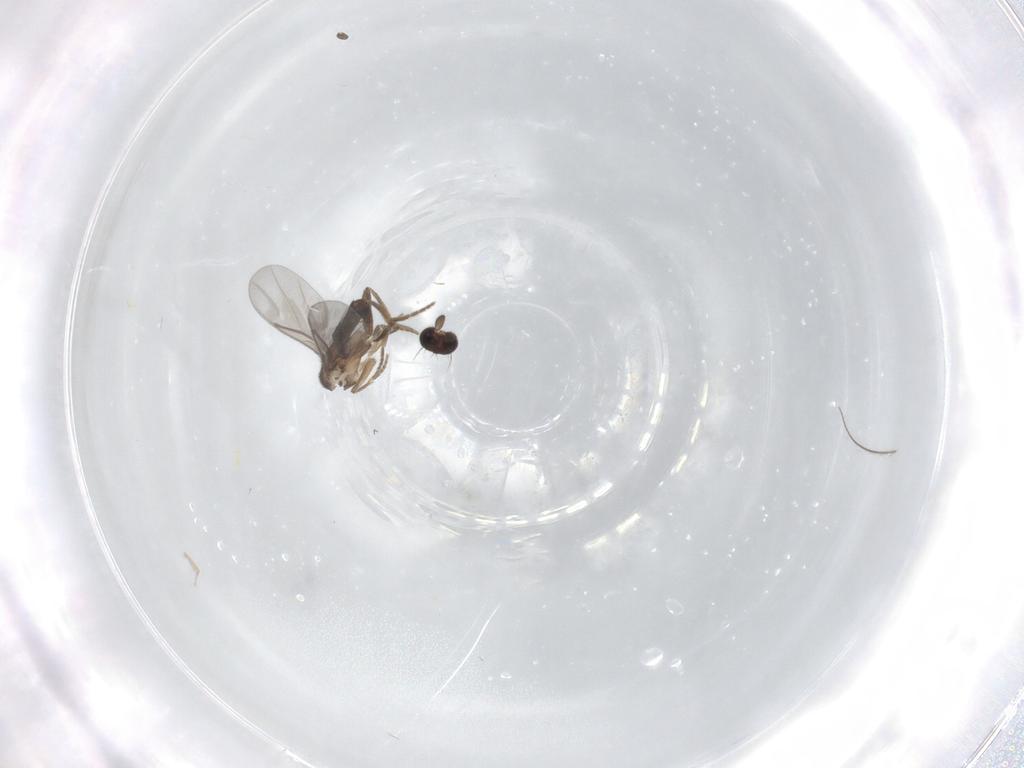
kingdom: Animalia
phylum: Arthropoda
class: Insecta
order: Diptera
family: Ceratopogonidae
